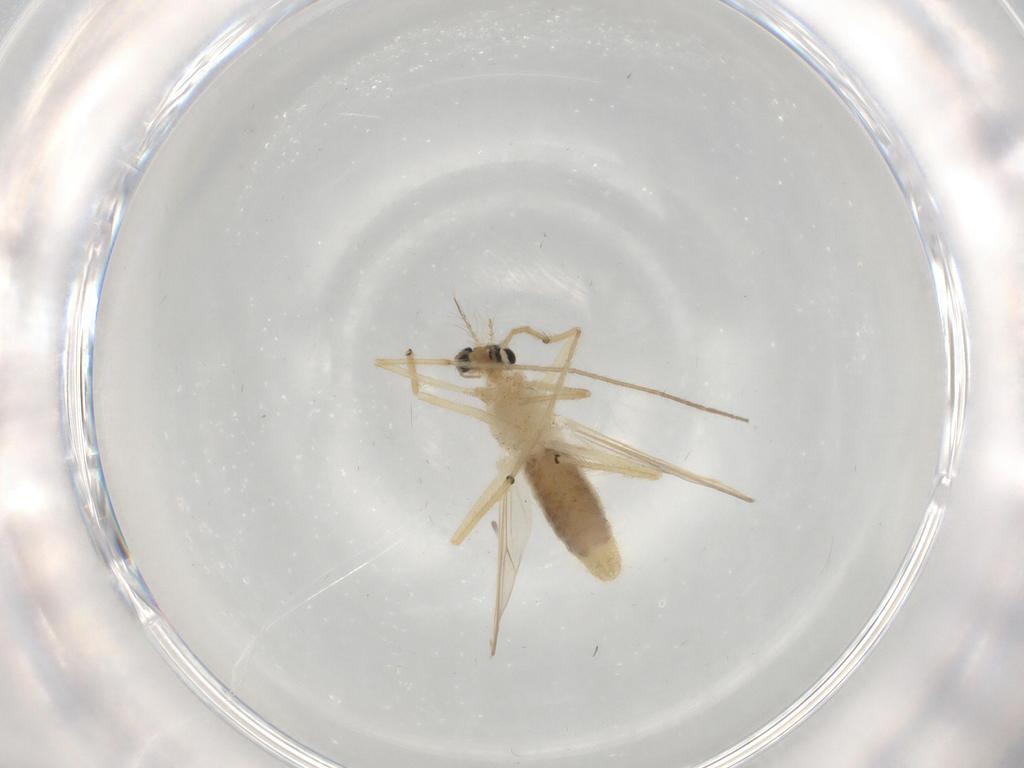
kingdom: Animalia
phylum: Arthropoda
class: Insecta
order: Diptera
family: Chironomidae
